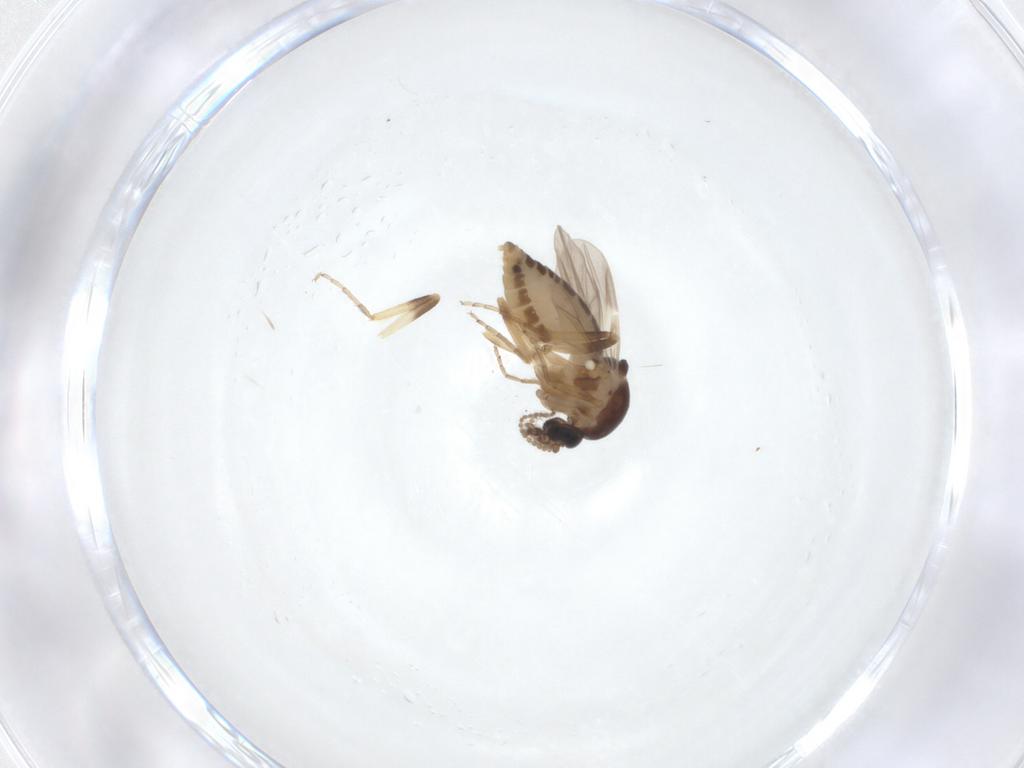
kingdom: Animalia
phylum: Arthropoda
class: Insecta
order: Diptera
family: Ceratopogonidae
